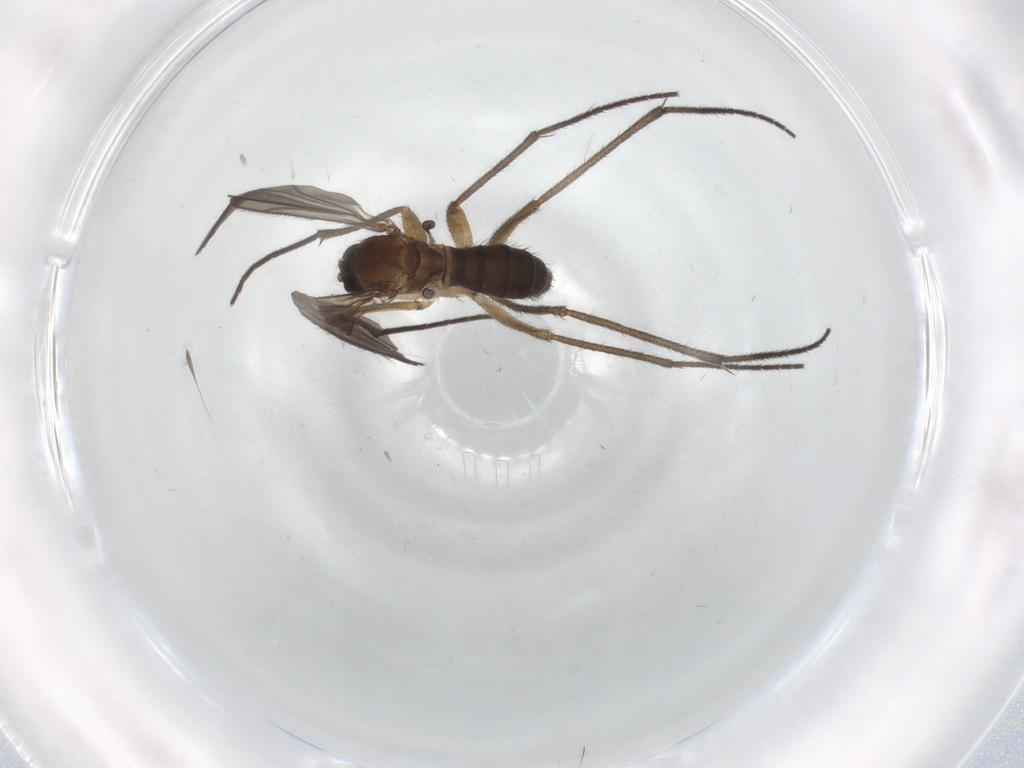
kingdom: Animalia
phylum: Arthropoda
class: Insecta
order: Diptera
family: Sciaridae
